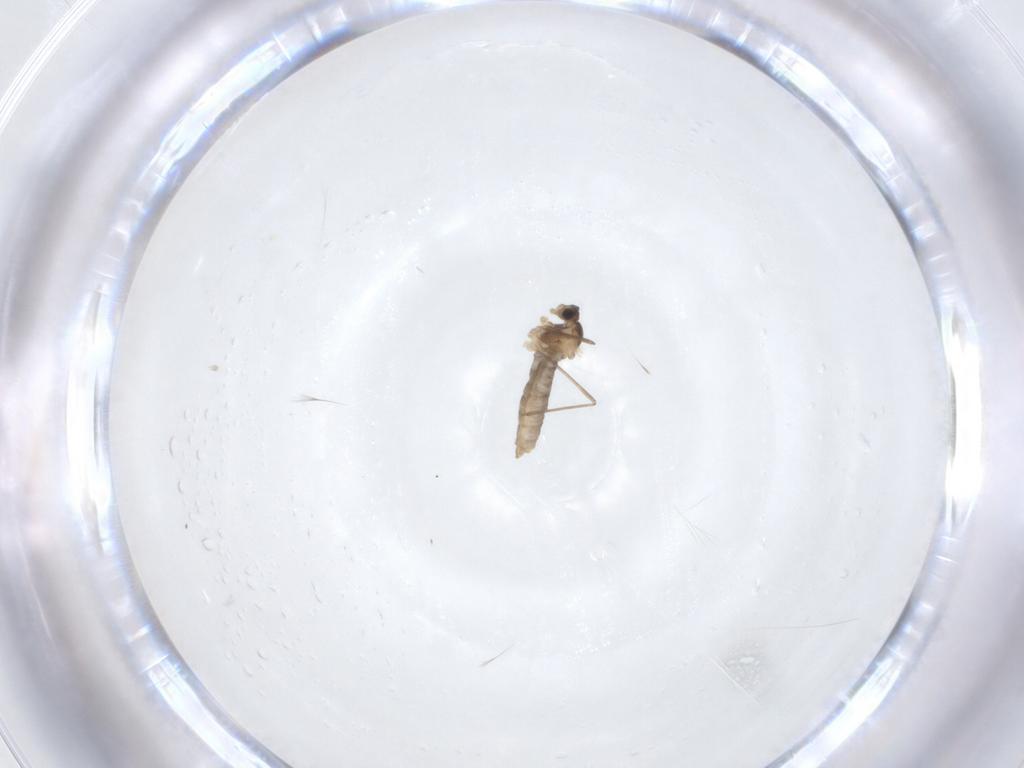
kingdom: Animalia
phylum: Arthropoda
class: Insecta
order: Diptera
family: Cecidomyiidae
